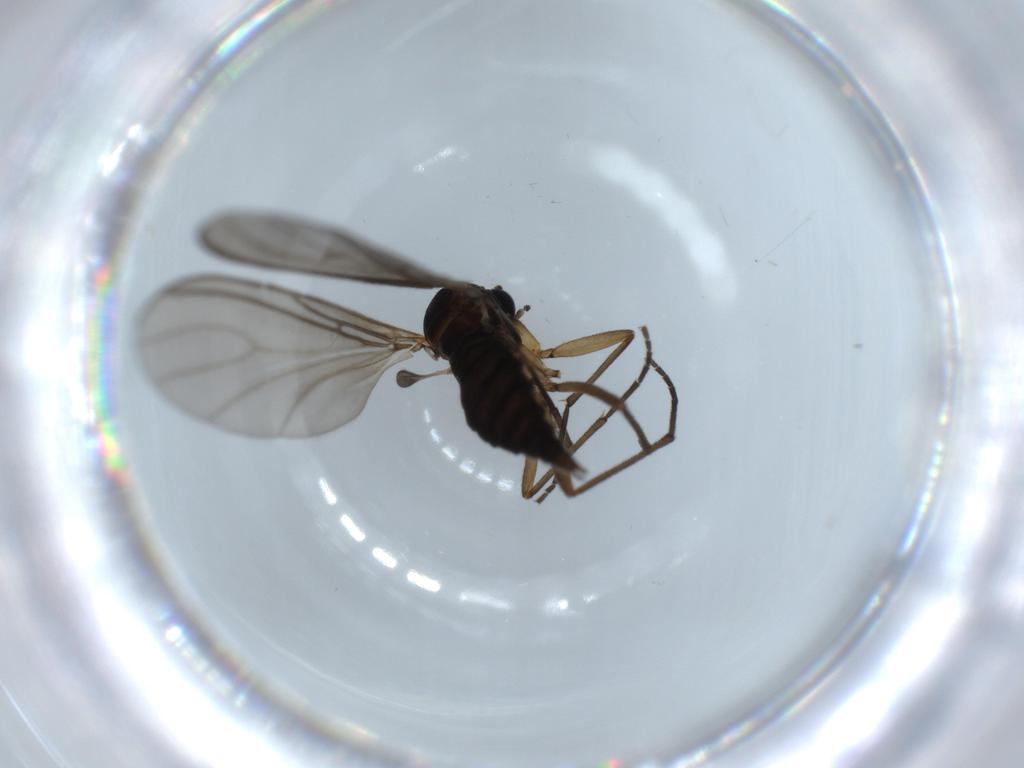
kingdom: Animalia
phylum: Arthropoda
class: Insecta
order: Diptera
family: Sciaridae
